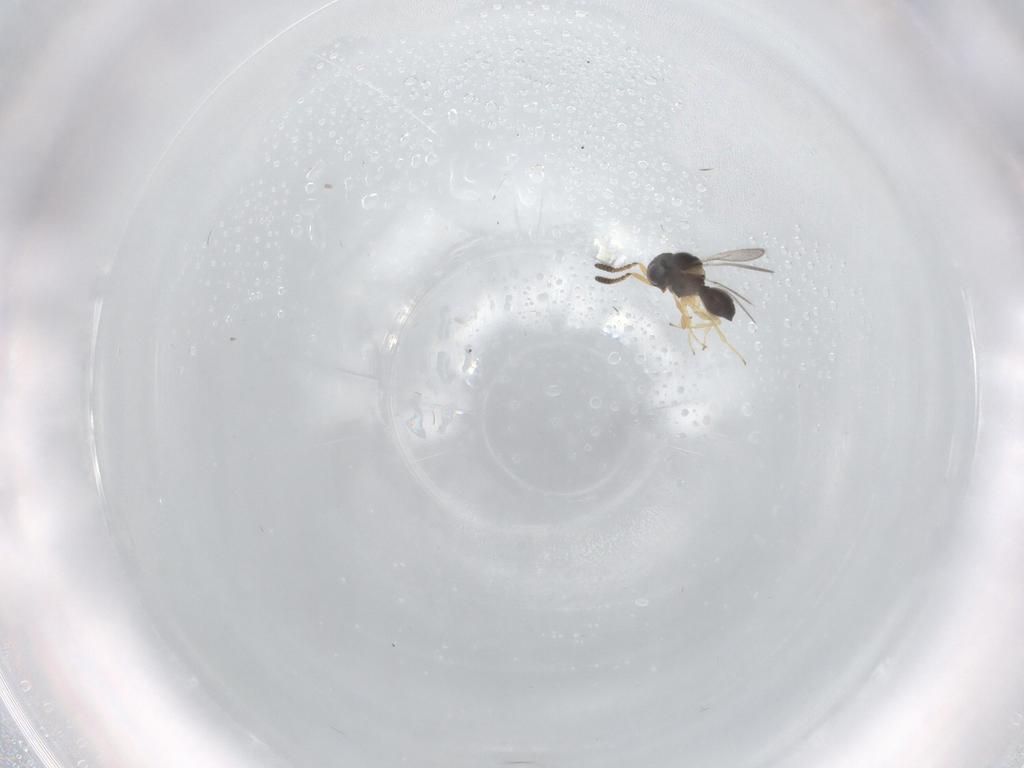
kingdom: Animalia
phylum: Arthropoda
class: Insecta
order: Hymenoptera
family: Scelionidae
